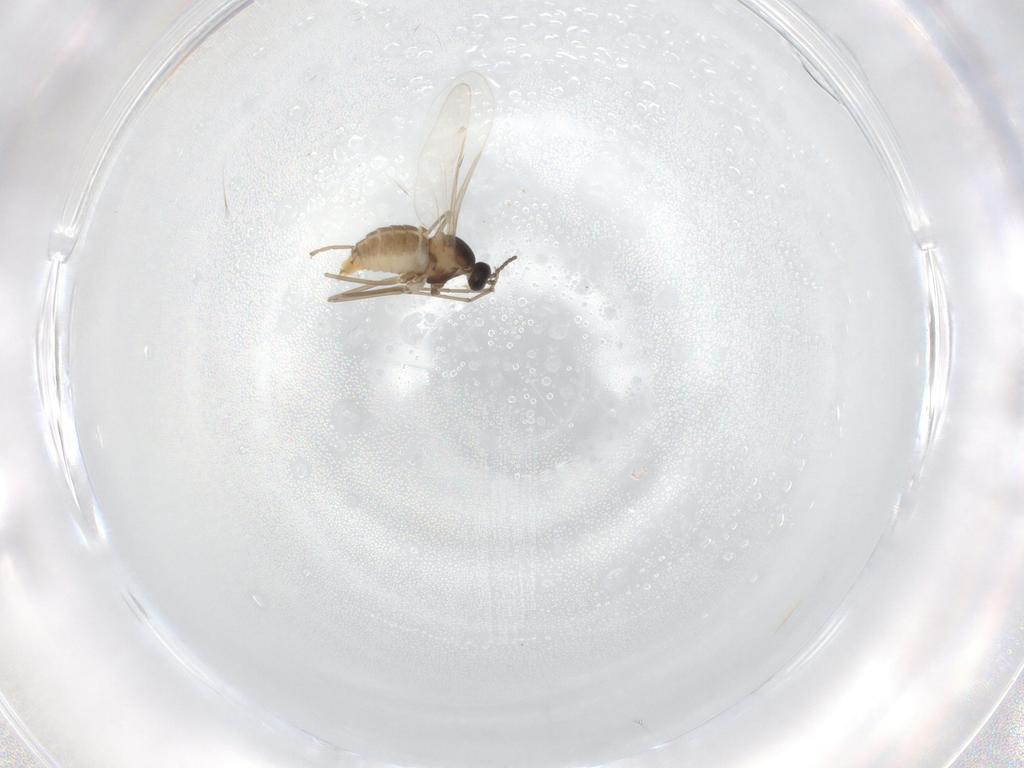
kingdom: Animalia
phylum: Arthropoda
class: Insecta
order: Diptera
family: Cecidomyiidae
